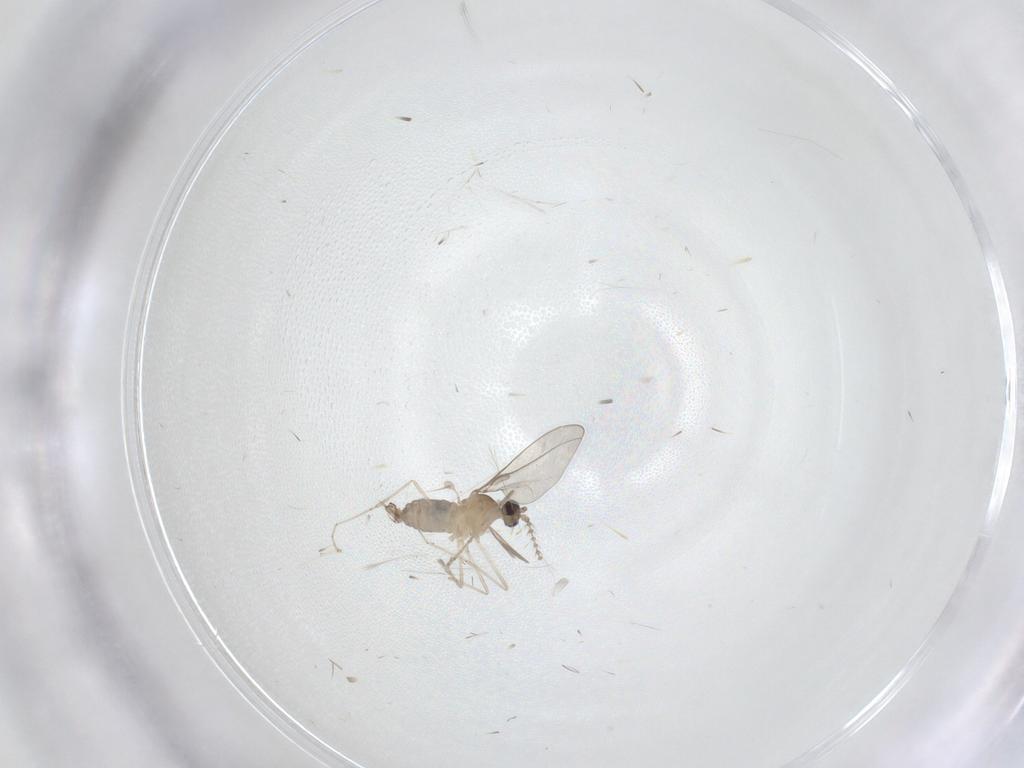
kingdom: Animalia
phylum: Arthropoda
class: Insecta
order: Diptera
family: Cecidomyiidae
